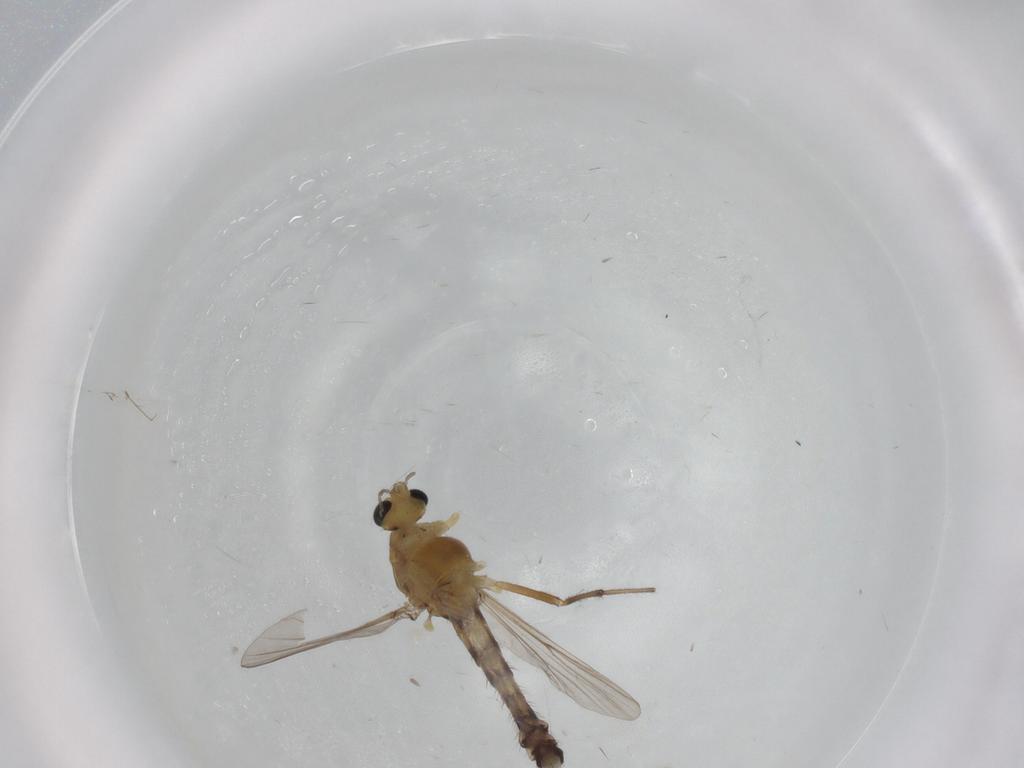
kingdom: Animalia
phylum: Arthropoda
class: Insecta
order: Diptera
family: Chironomidae
